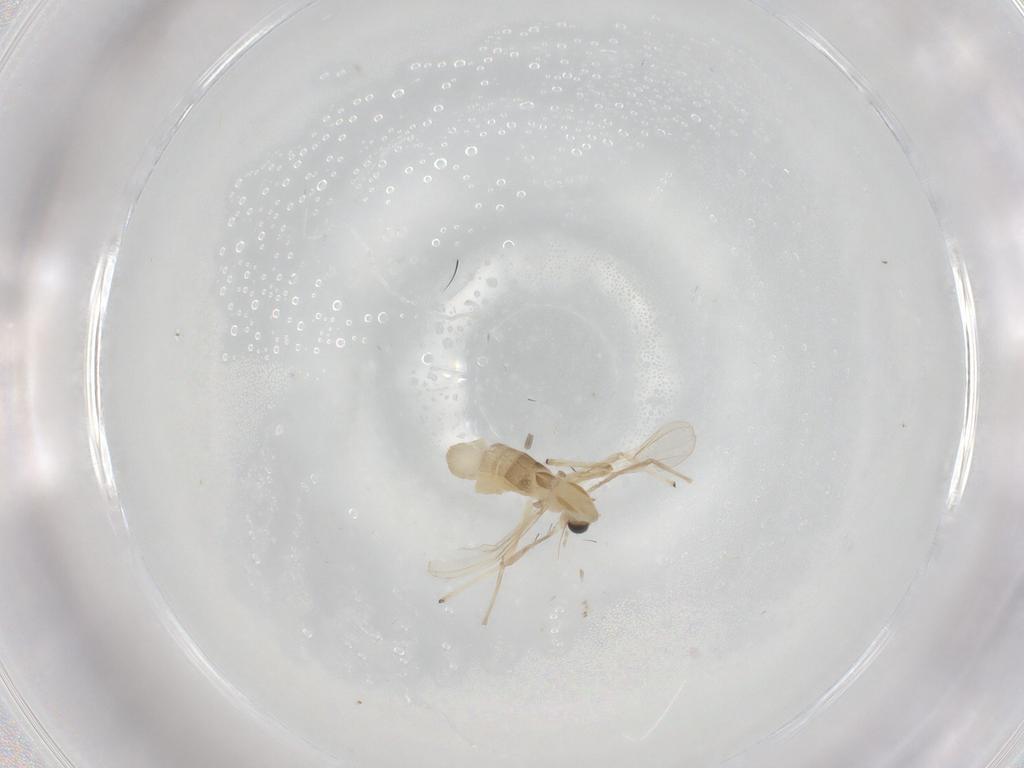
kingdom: Animalia
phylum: Arthropoda
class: Insecta
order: Diptera
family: Chironomidae
